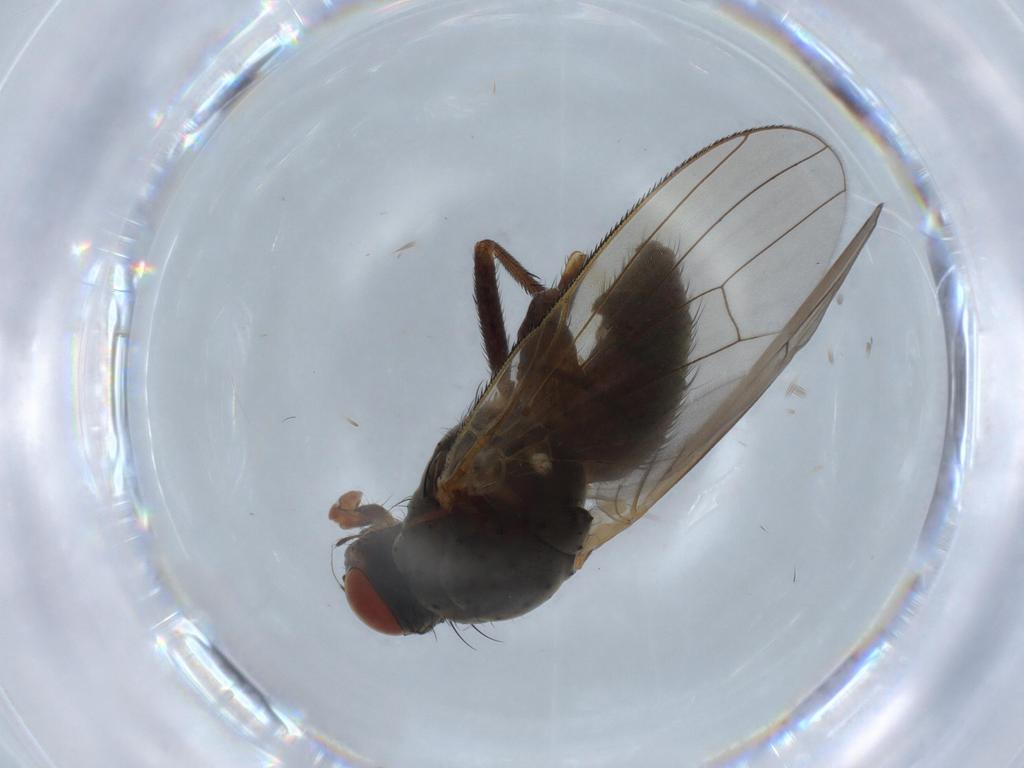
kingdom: Animalia
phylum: Arthropoda
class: Insecta
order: Diptera
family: Anthomyiidae
